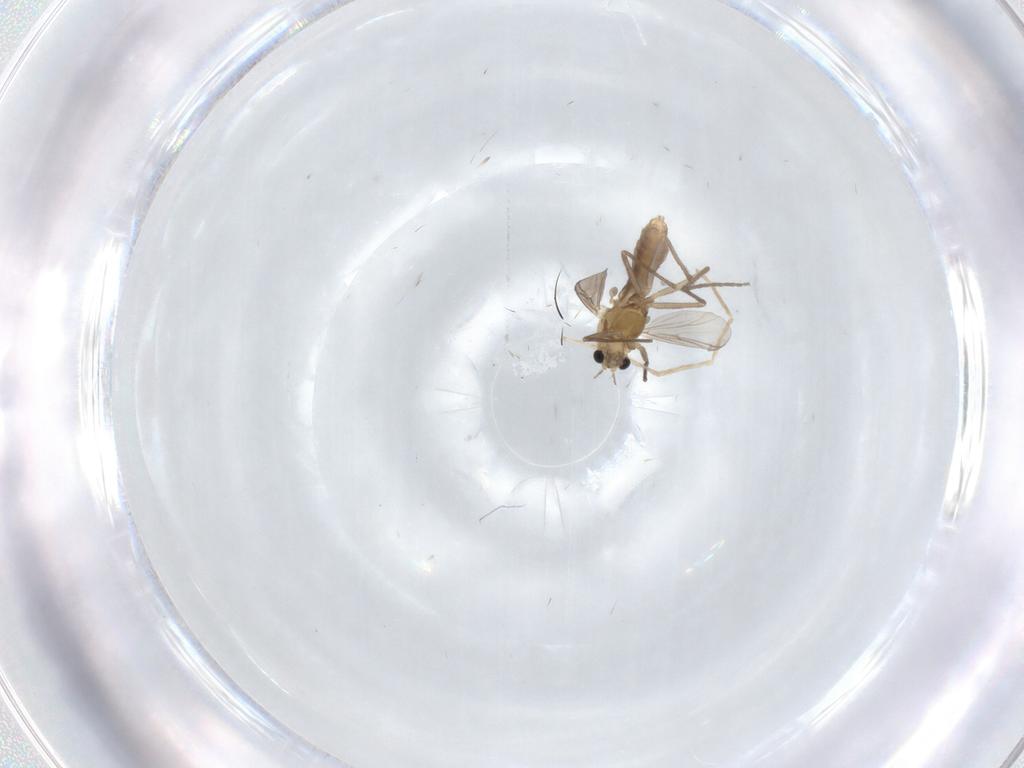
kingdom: Animalia
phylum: Arthropoda
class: Insecta
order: Diptera
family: Chironomidae
